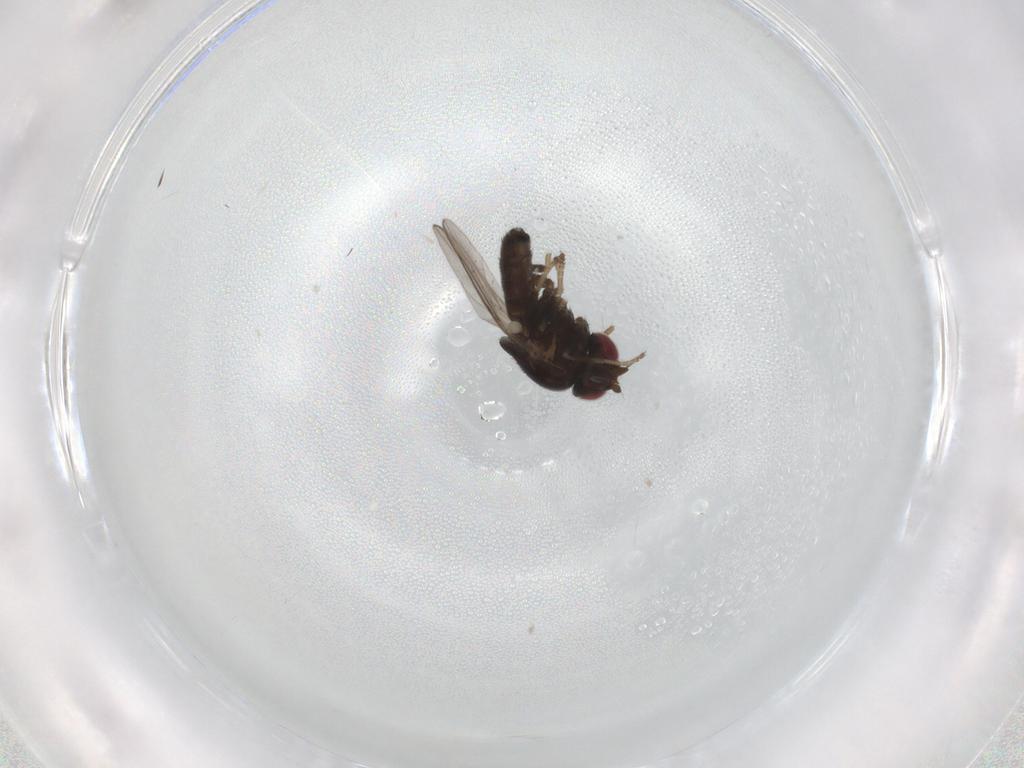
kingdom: Animalia
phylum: Arthropoda
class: Insecta
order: Diptera
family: Chloropidae
